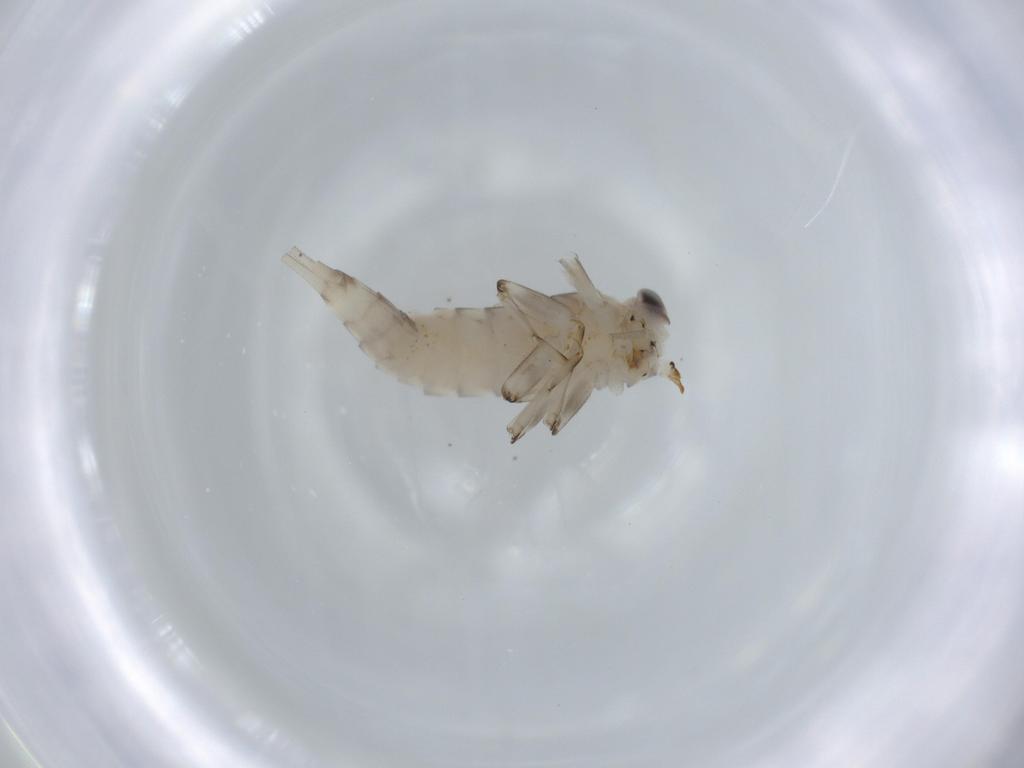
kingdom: Animalia
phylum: Arthropoda
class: Insecta
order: Ephemeroptera
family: Baetidae
